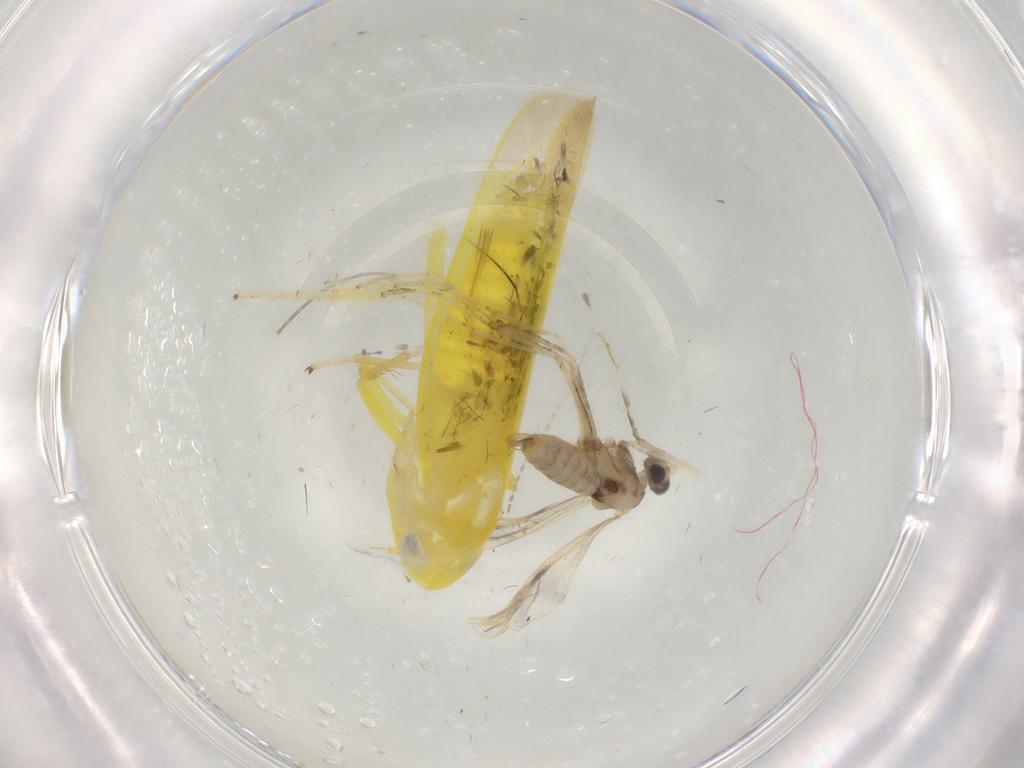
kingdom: Animalia
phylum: Arthropoda
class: Insecta
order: Hemiptera
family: Cicadellidae
